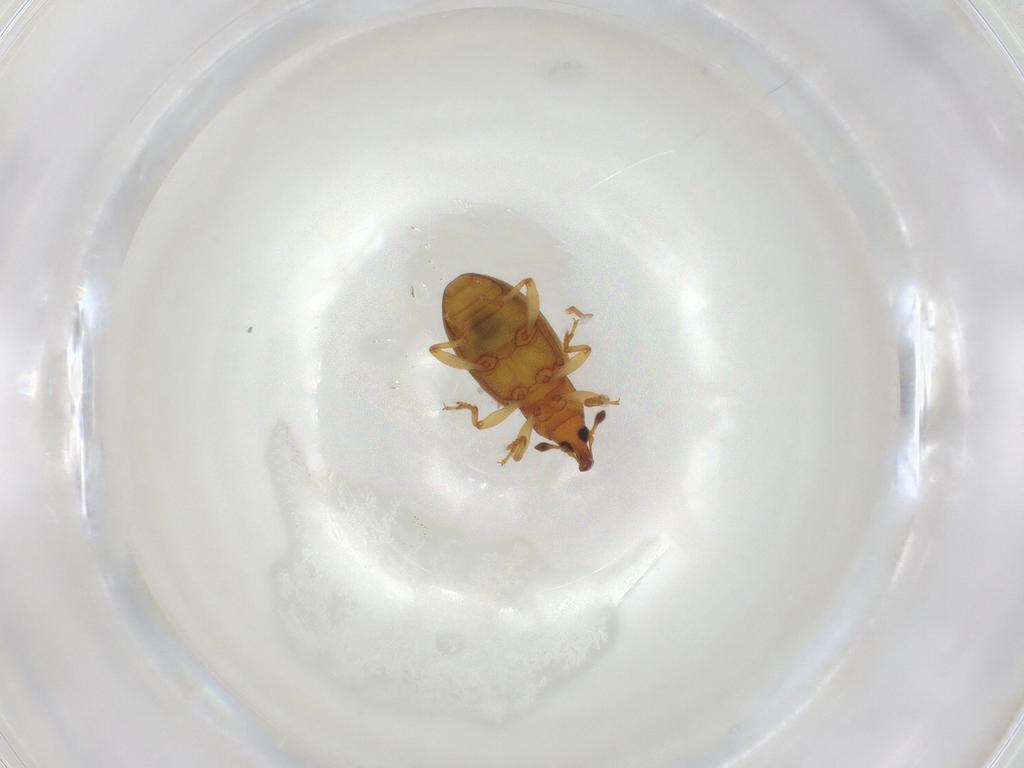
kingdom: Animalia
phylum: Arthropoda
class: Insecta
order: Coleoptera
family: Curculionidae
